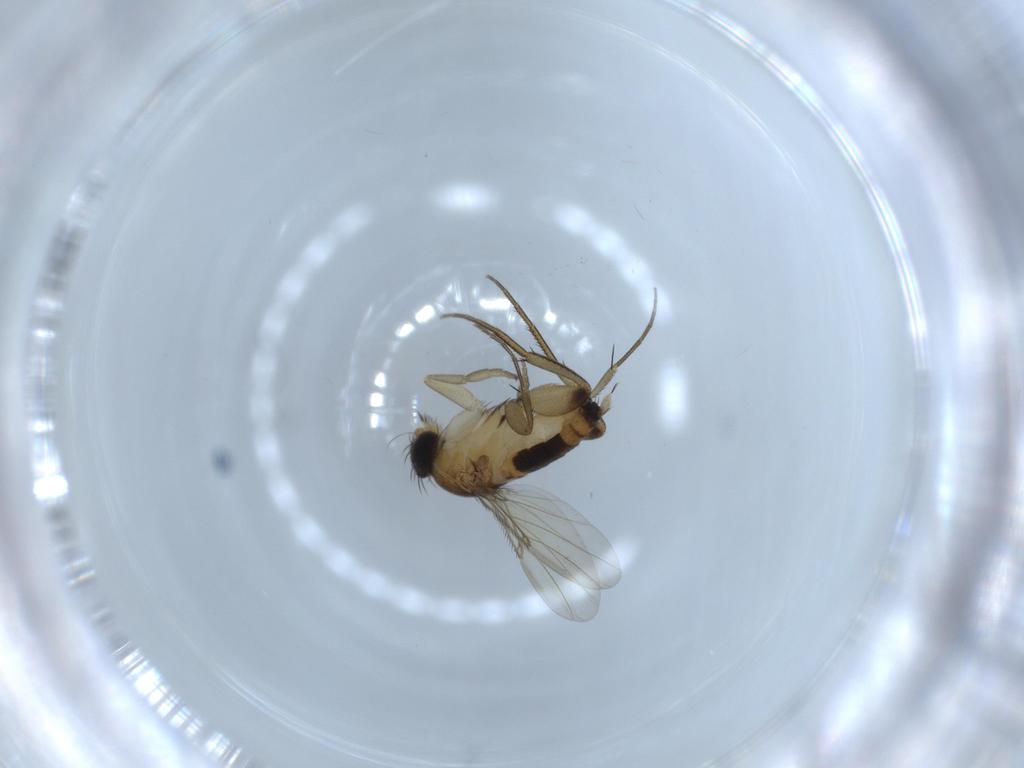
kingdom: Animalia
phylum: Arthropoda
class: Insecta
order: Diptera
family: Phoridae
